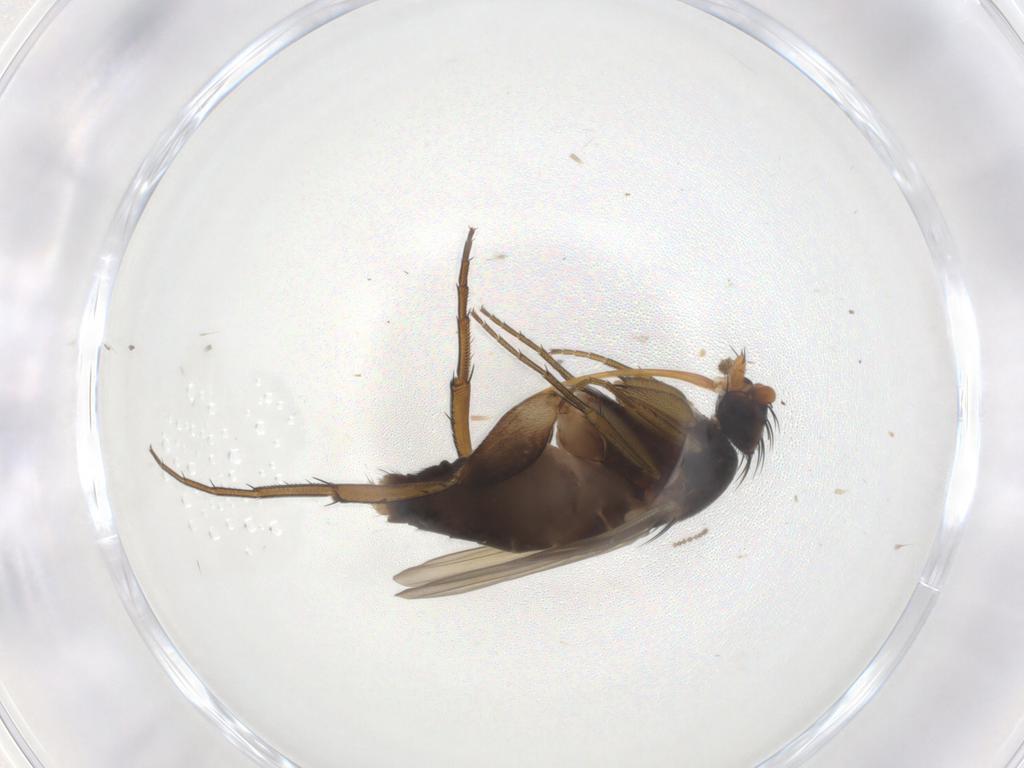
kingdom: Animalia
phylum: Arthropoda
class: Insecta
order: Diptera
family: Phoridae
